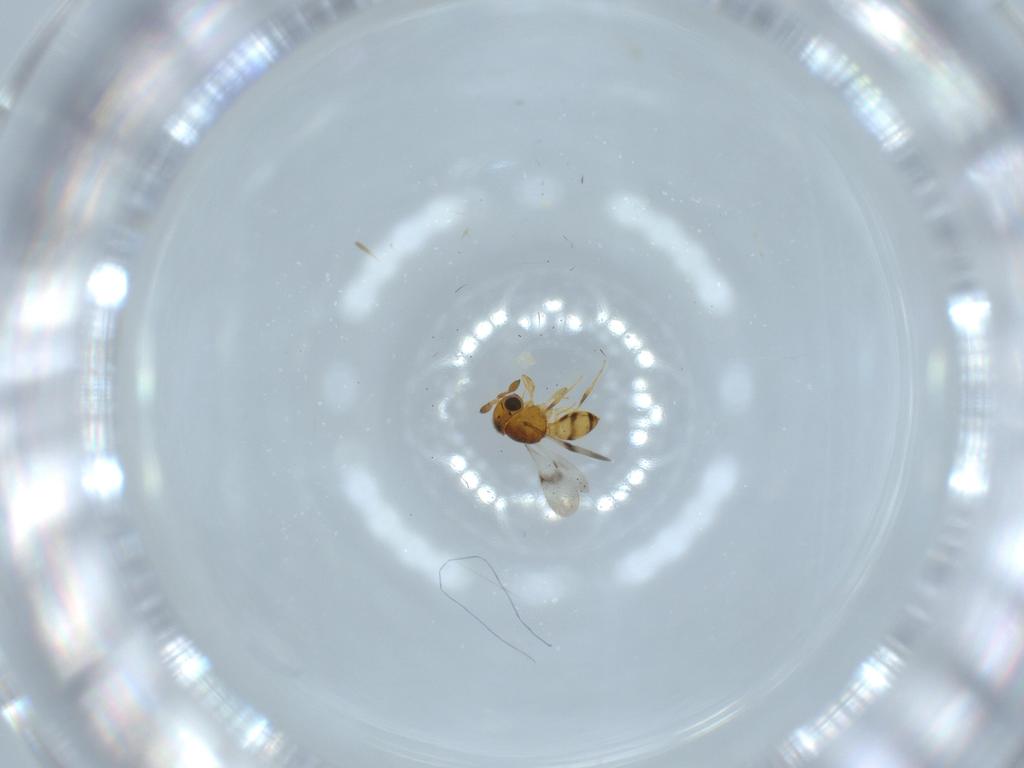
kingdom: Animalia
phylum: Arthropoda
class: Insecta
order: Hymenoptera
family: Scelionidae
